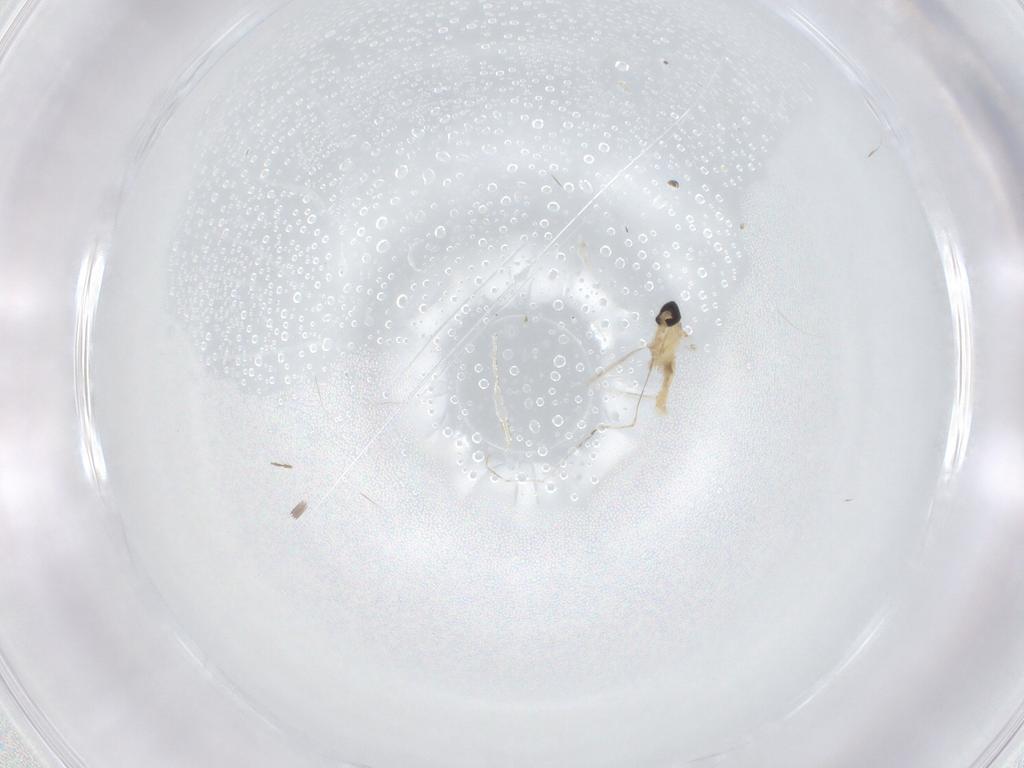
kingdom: Animalia
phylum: Arthropoda
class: Insecta
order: Diptera
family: Cecidomyiidae
